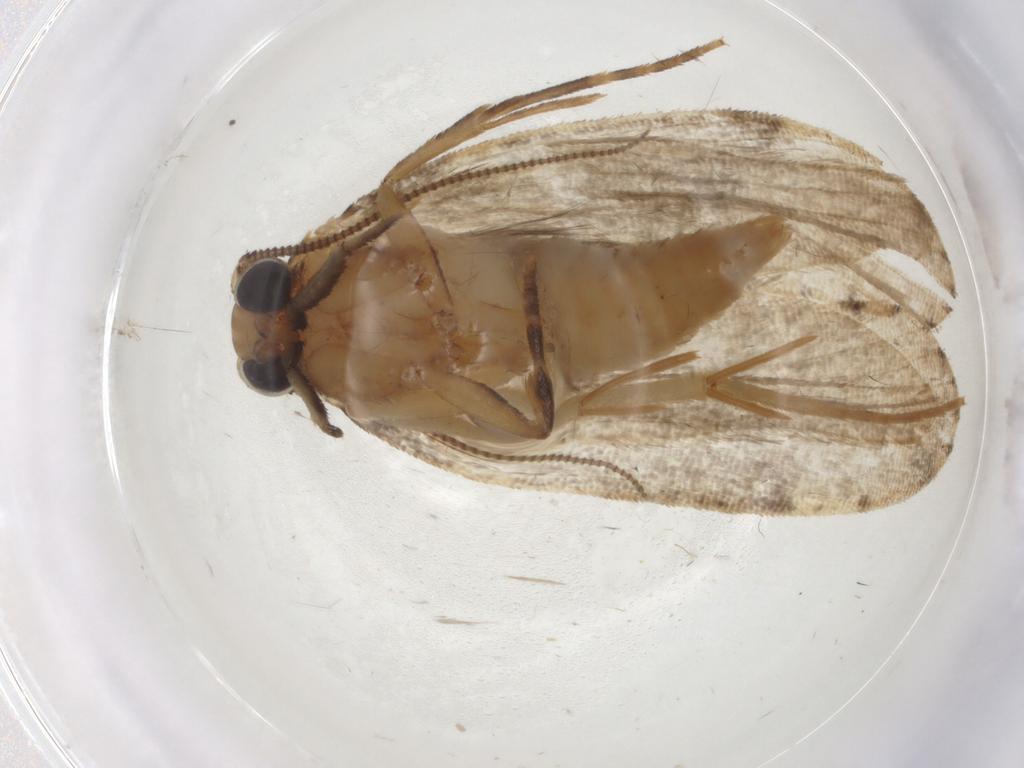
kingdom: Animalia
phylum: Arthropoda
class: Insecta
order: Lepidoptera
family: Tineidae
